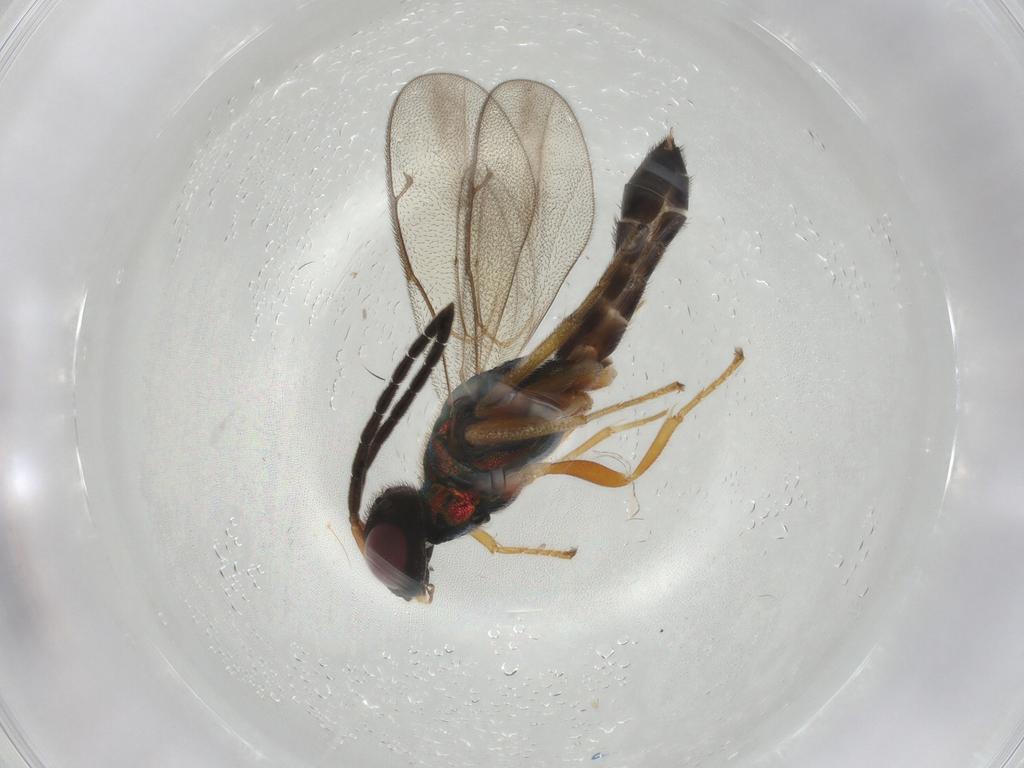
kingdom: Animalia
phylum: Arthropoda
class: Insecta
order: Hymenoptera
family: Pteromalidae
